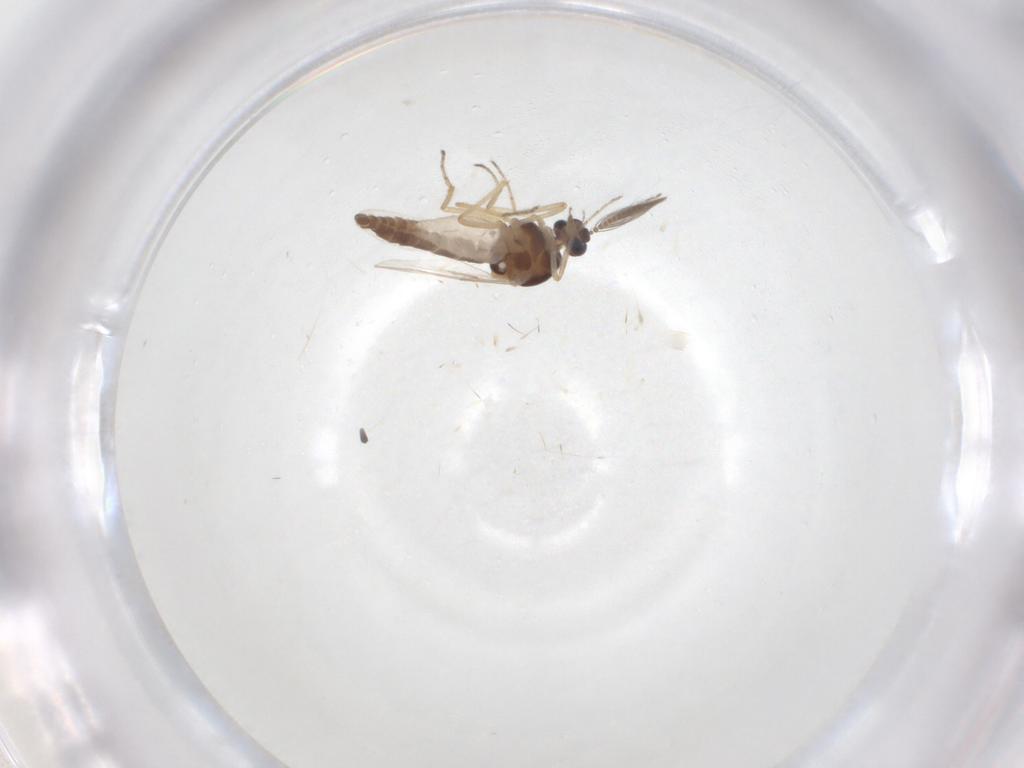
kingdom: Animalia
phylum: Arthropoda
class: Insecta
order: Diptera
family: Ceratopogonidae
